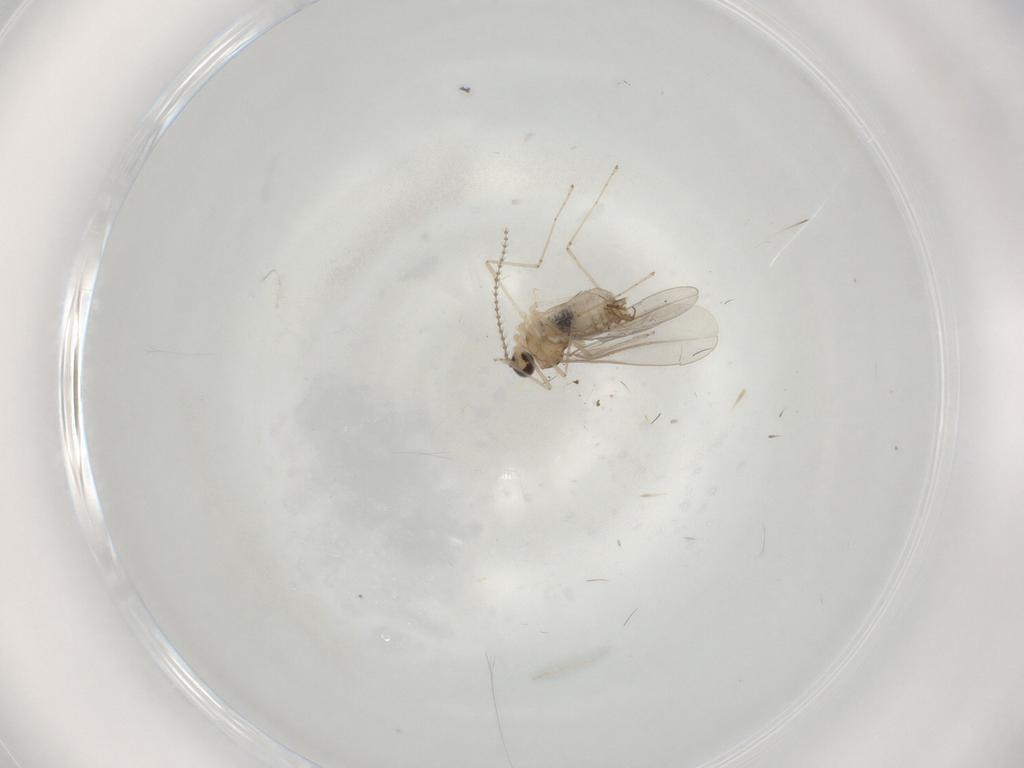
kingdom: Animalia
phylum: Arthropoda
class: Insecta
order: Diptera
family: Cecidomyiidae
